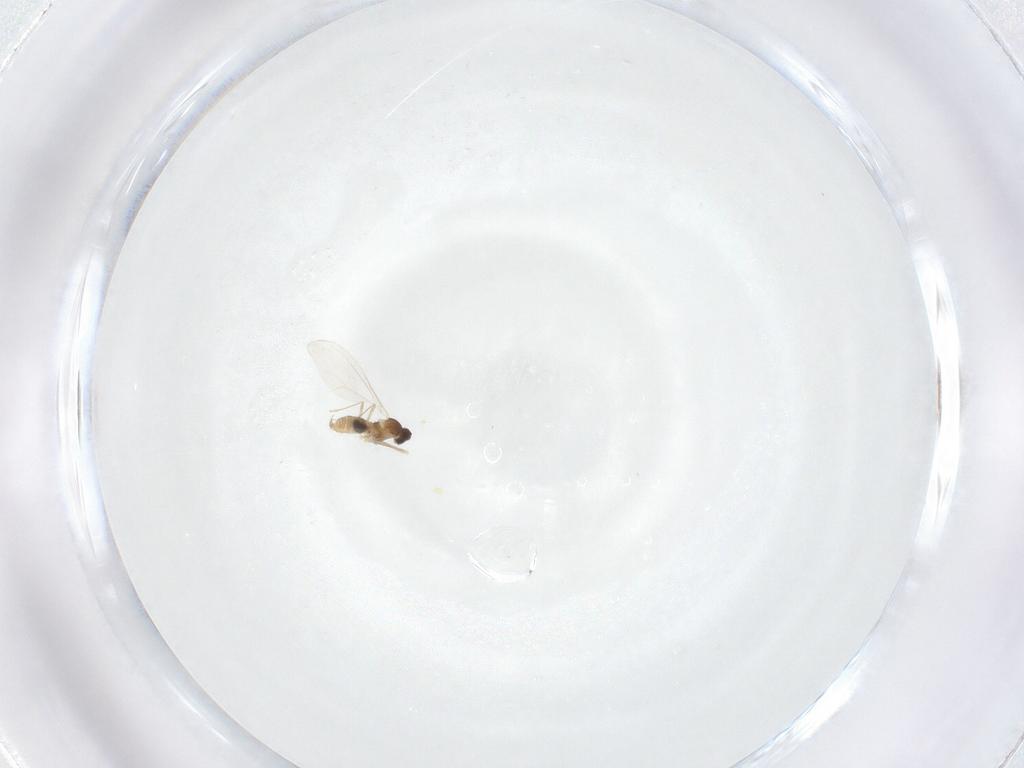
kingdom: Animalia
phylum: Arthropoda
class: Insecta
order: Diptera
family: Cecidomyiidae
